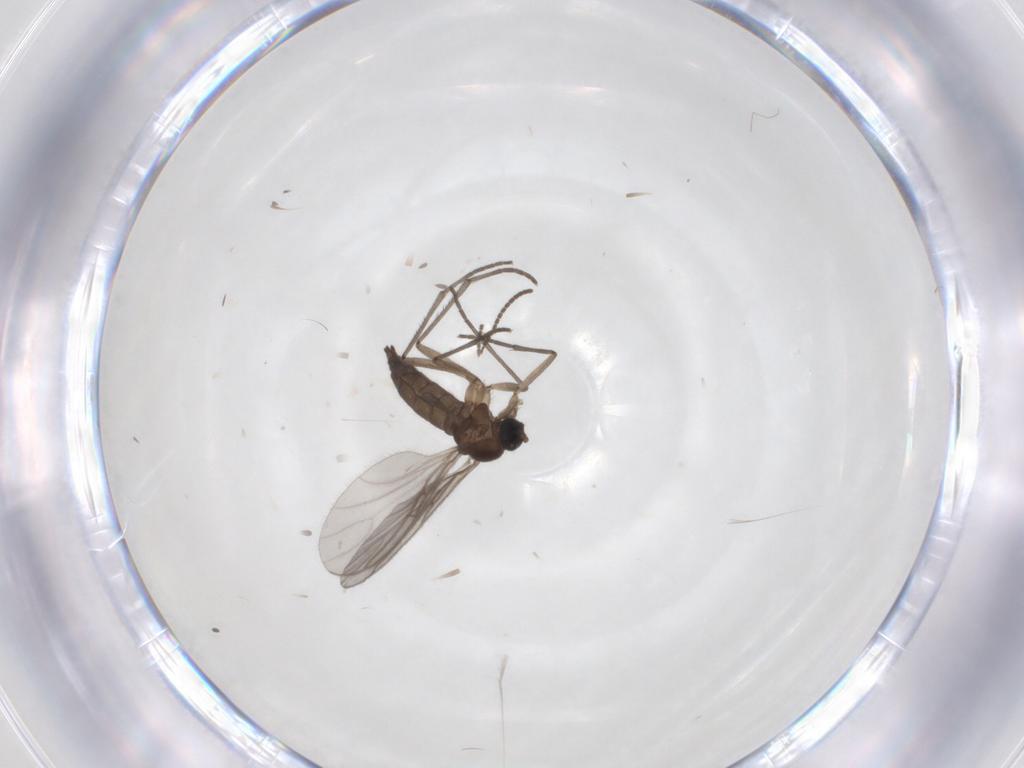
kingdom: Animalia
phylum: Arthropoda
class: Insecta
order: Diptera
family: Sciaridae
